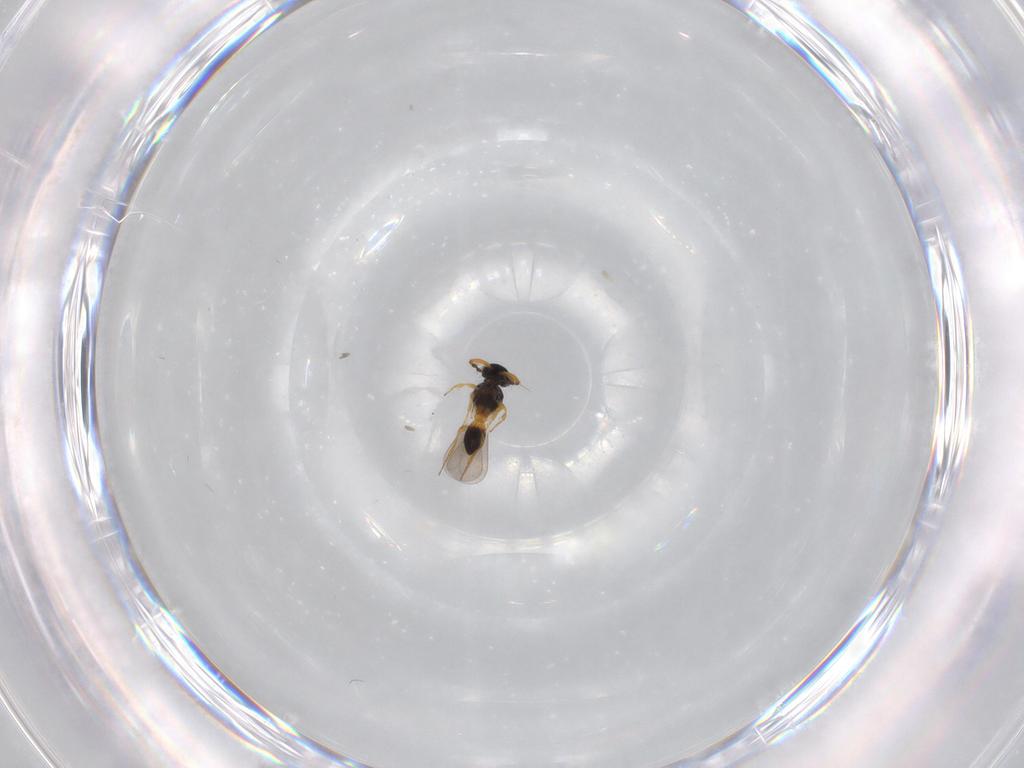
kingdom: Animalia
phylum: Arthropoda
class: Insecta
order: Hymenoptera
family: Platygastridae
